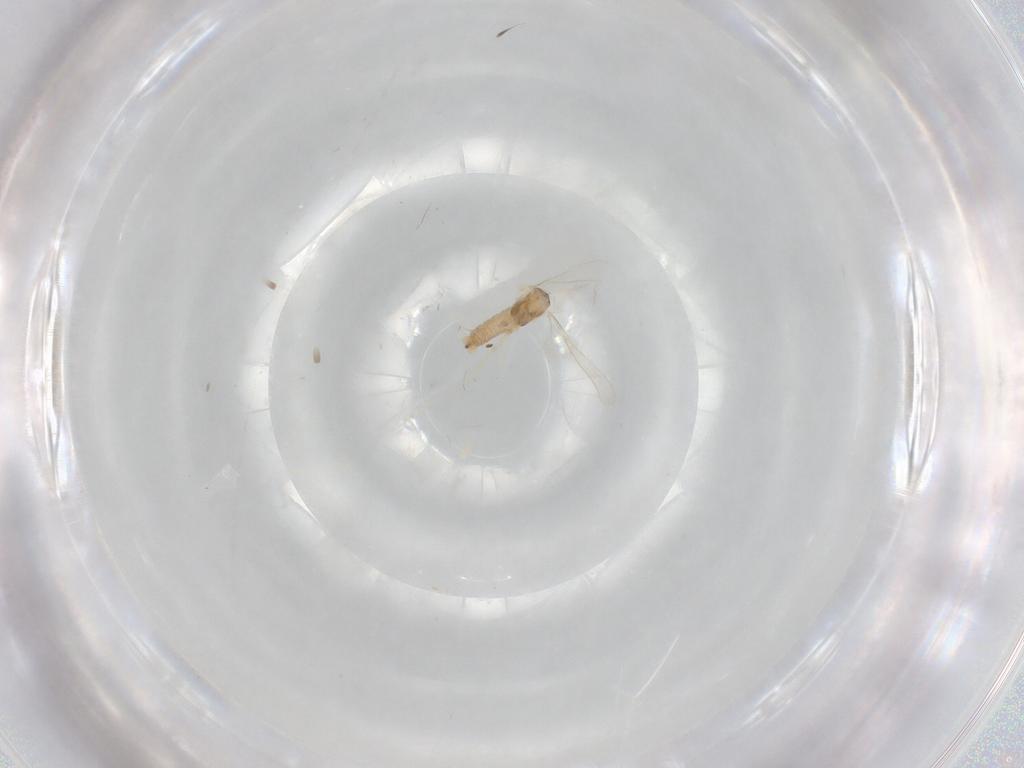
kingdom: Animalia
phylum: Arthropoda
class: Insecta
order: Diptera
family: Cecidomyiidae
